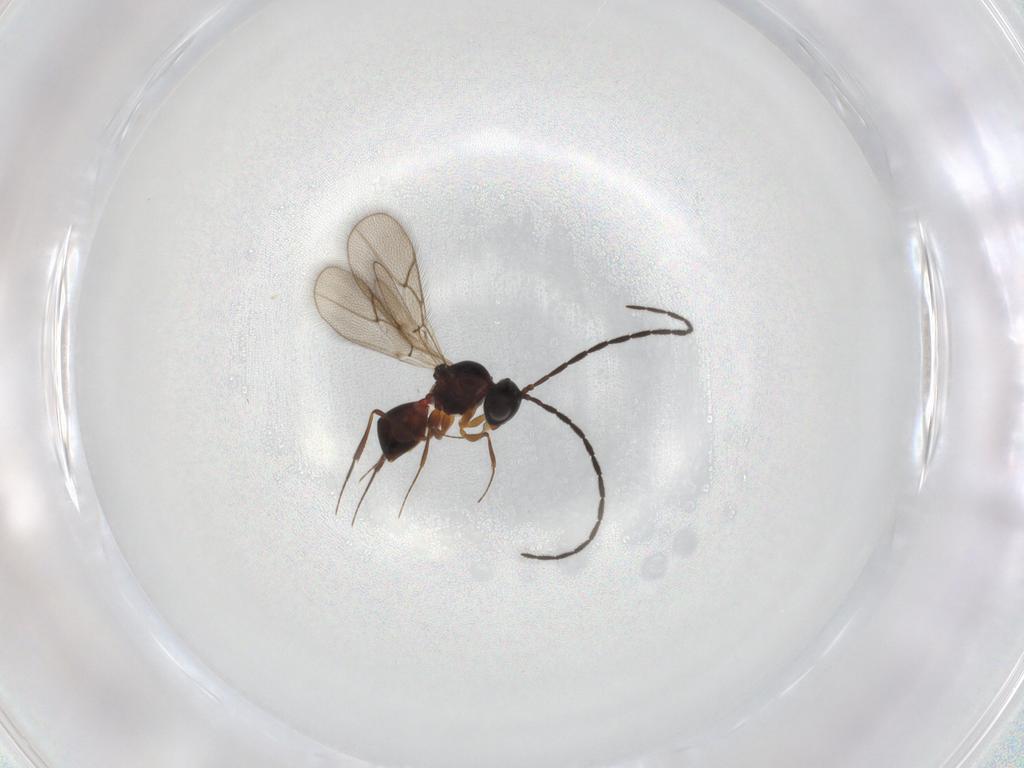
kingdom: Animalia
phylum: Arthropoda
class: Insecta
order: Hymenoptera
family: Figitidae
